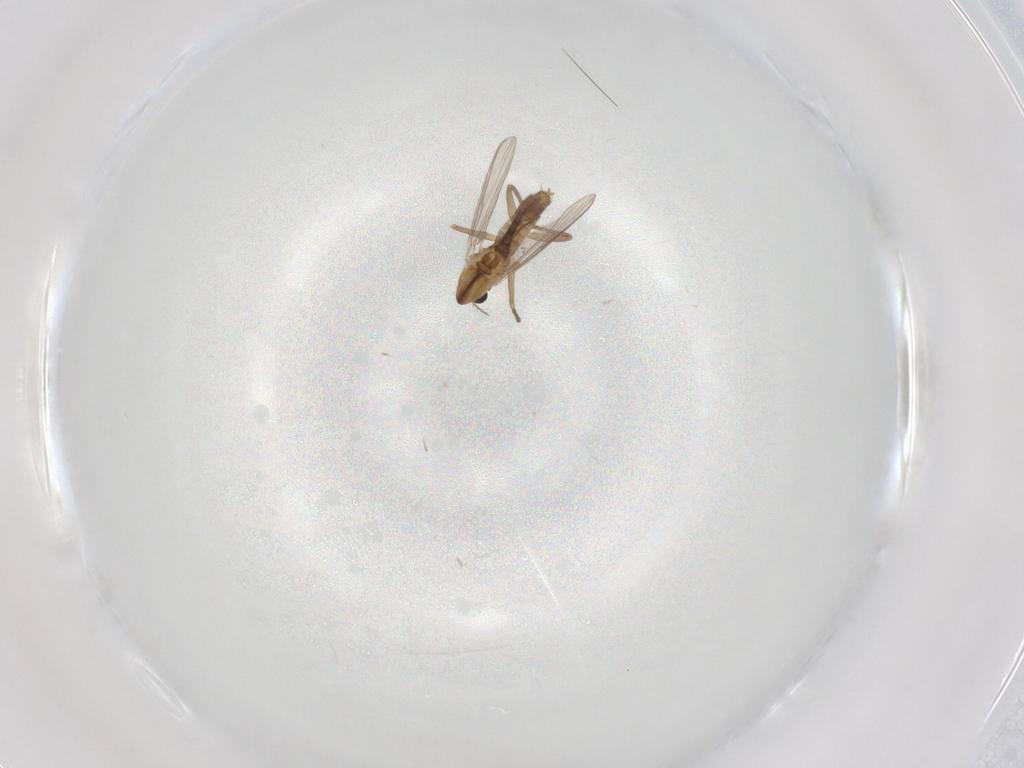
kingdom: Animalia
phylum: Arthropoda
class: Insecta
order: Diptera
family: Chironomidae
